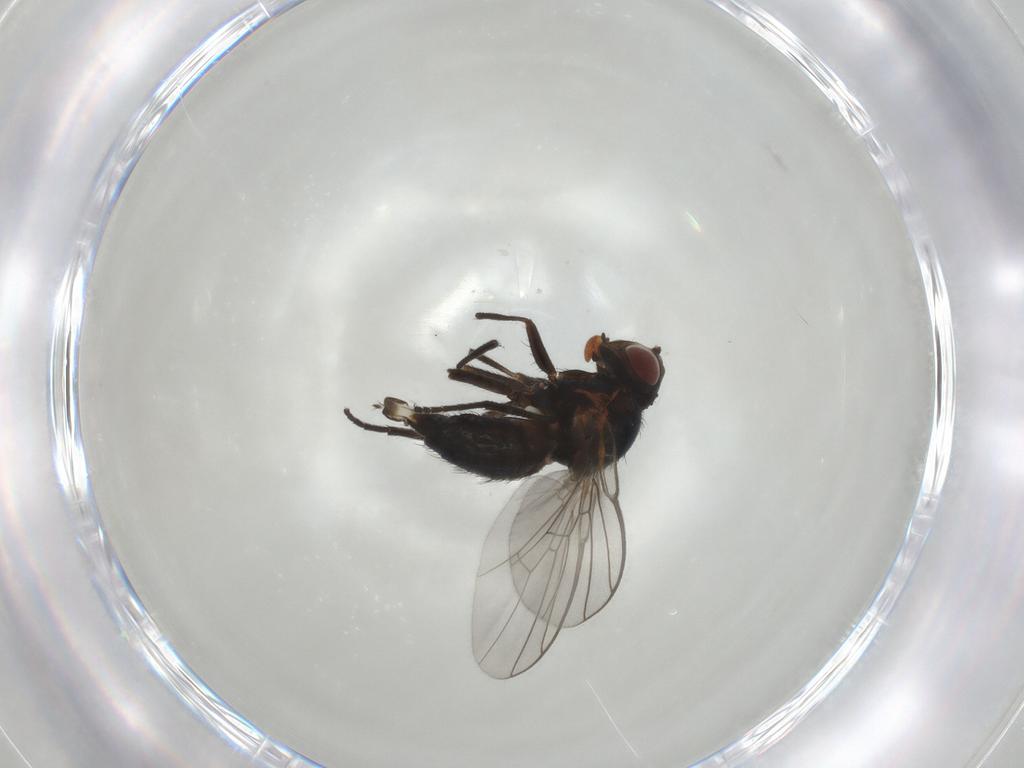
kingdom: Animalia
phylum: Arthropoda
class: Insecta
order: Diptera
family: Agromyzidae
